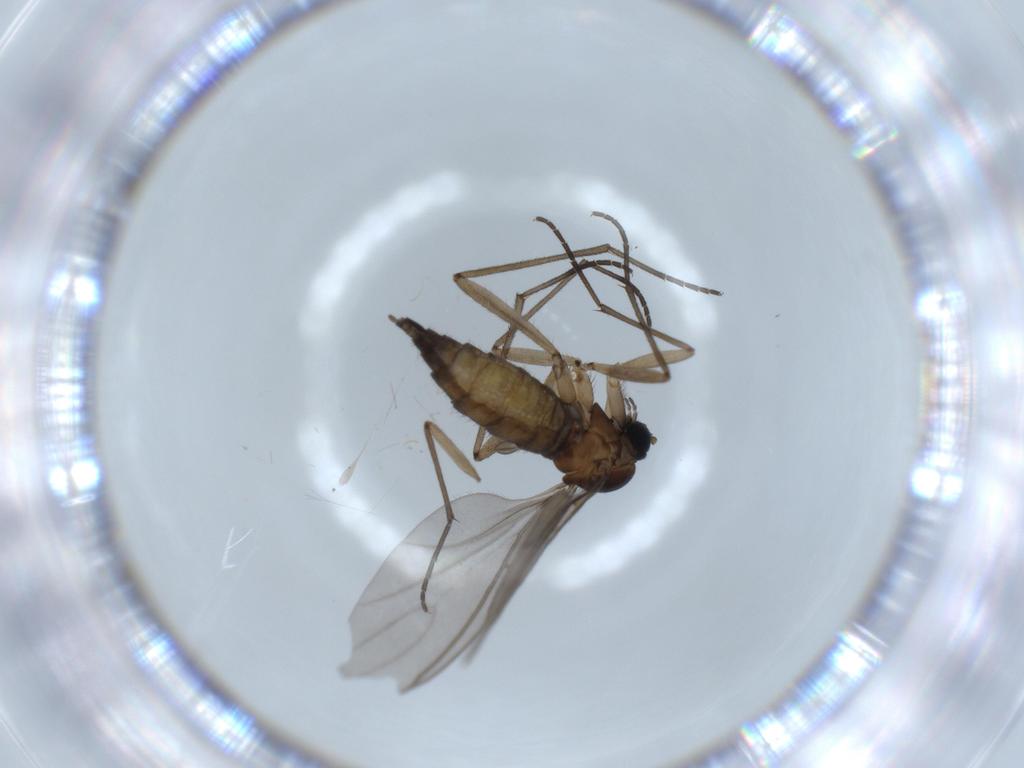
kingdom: Animalia
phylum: Arthropoda
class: Insecta
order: Diptera
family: Sciaridae
